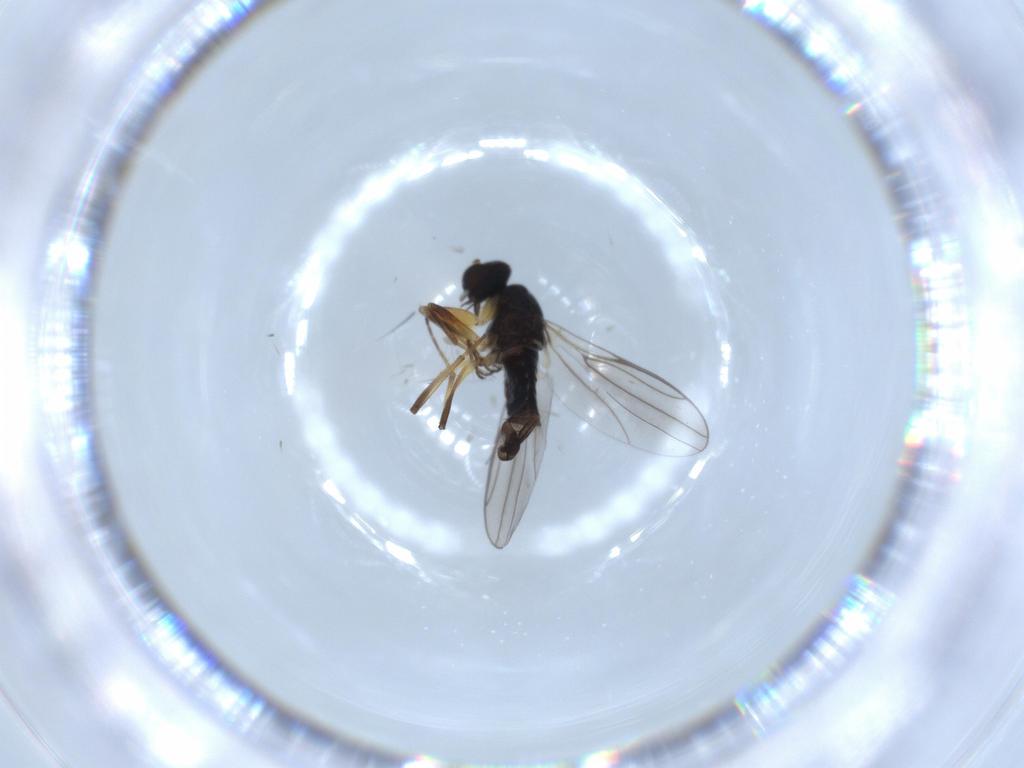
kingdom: Animalia
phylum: Arthropoda
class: Insecta
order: Diptera
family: Hybotidae
